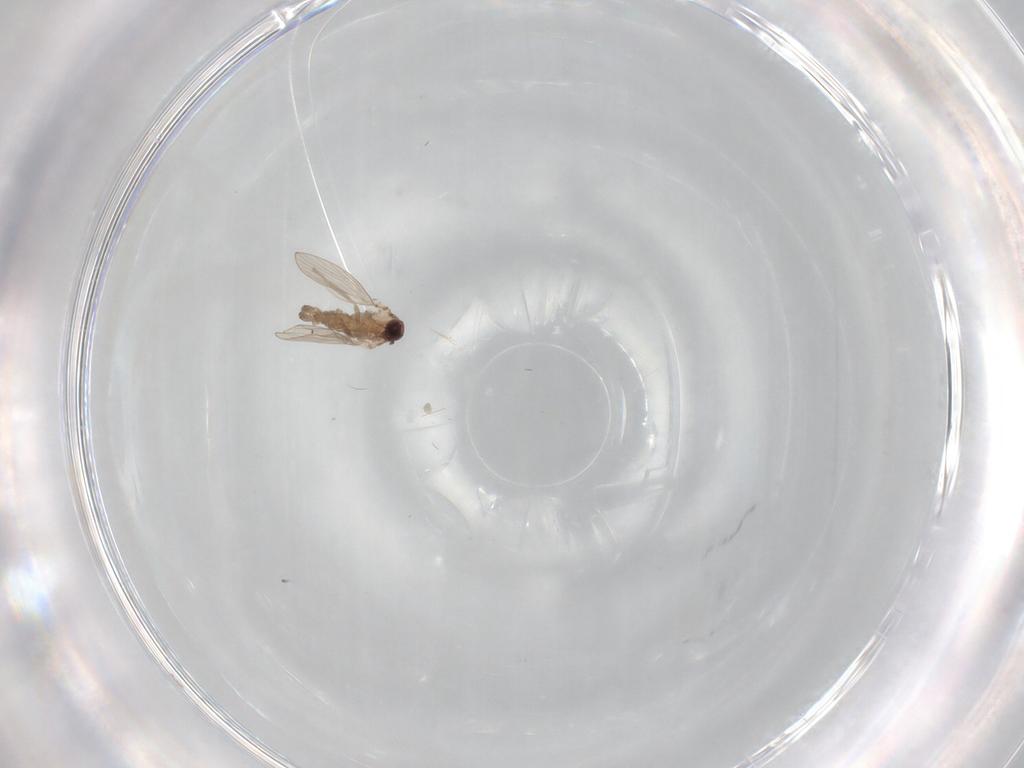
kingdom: Animalia
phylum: Arthropoda
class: Insecta
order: Diptera
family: Psychodidae
